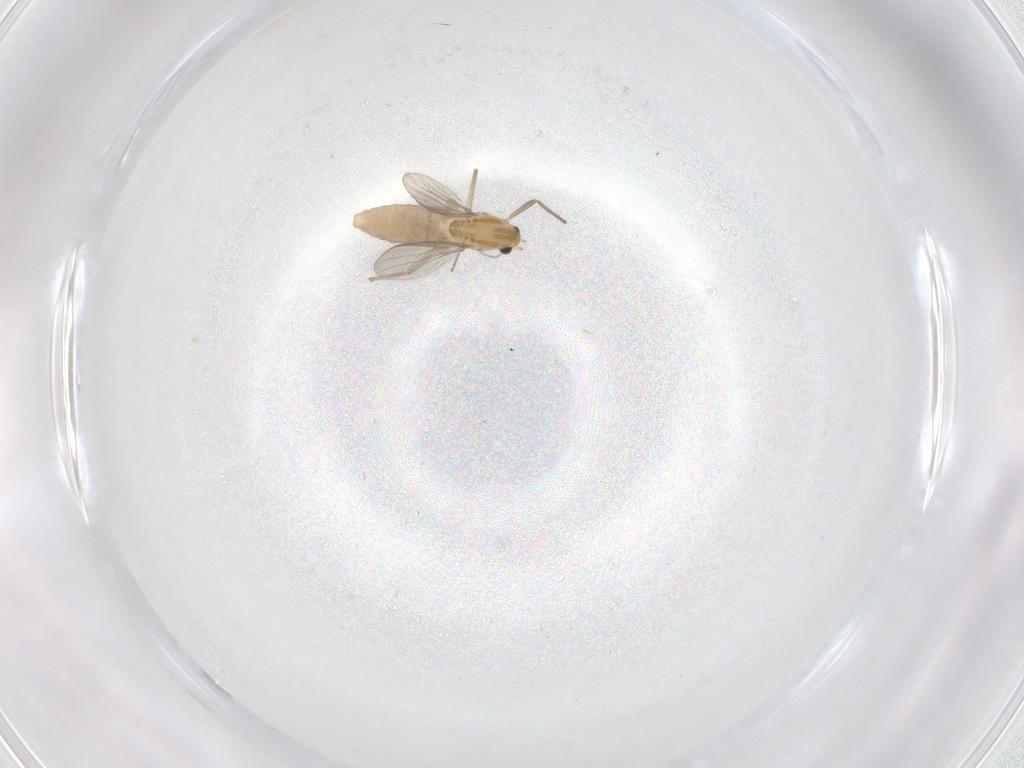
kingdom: Animalia
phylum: Arthropoda
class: Insecta
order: Diptera
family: Chironomidae
